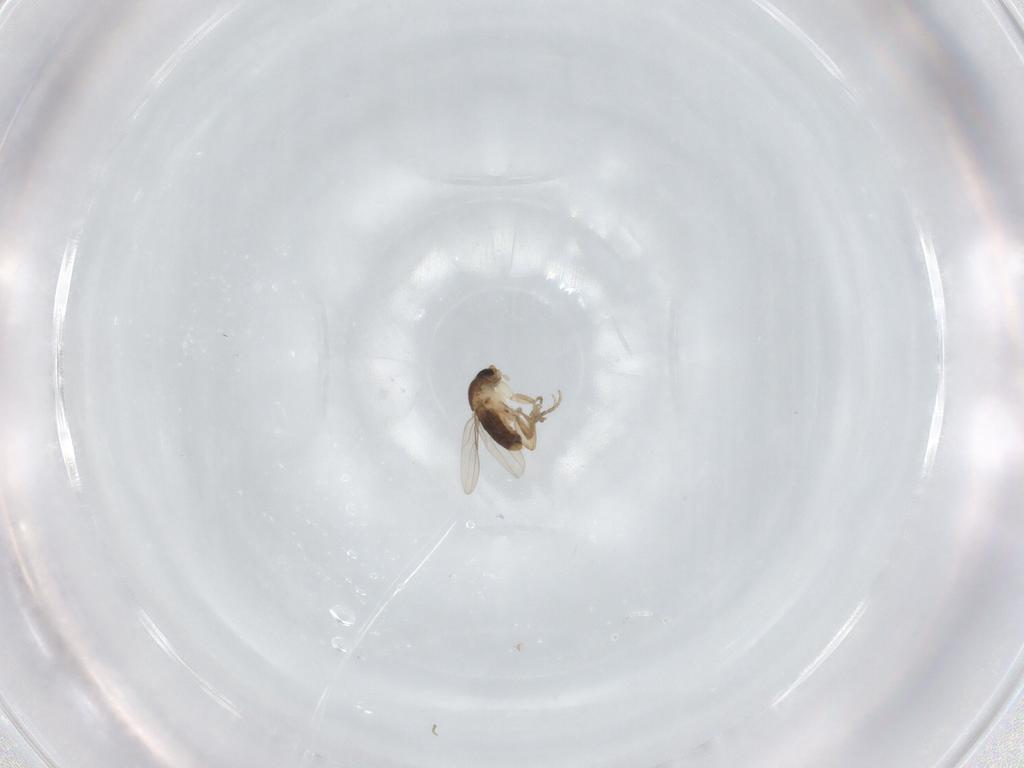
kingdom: Animalia
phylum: Arthropoda
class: Insecta
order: Diptera
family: Phoridae
